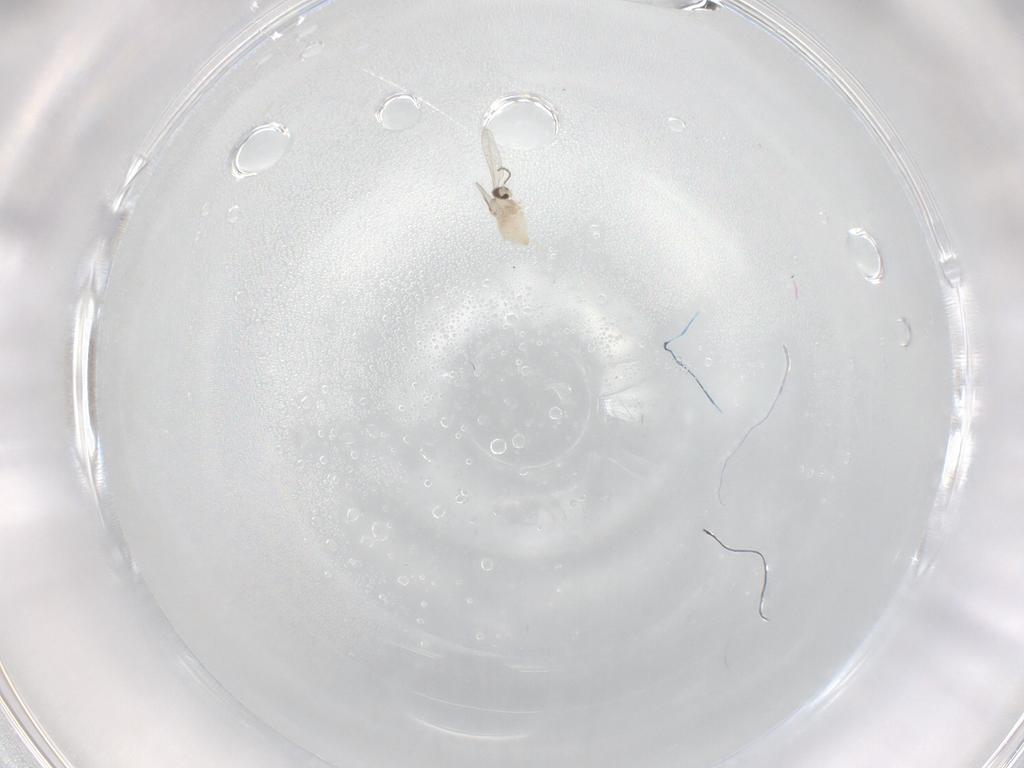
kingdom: Animalia
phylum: Arthropoda
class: Insecta
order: Diptera
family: Cecidomyiidae
